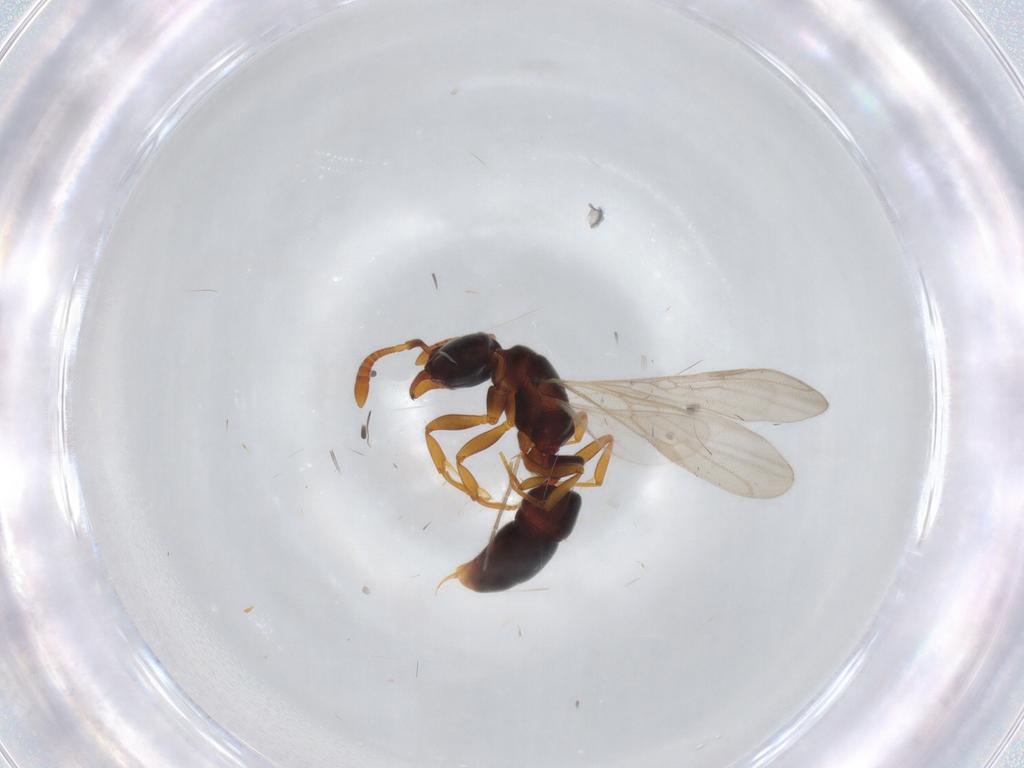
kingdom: Animalia
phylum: Arthropoda
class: Insecta
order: Hymenoptera
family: Formicidae
